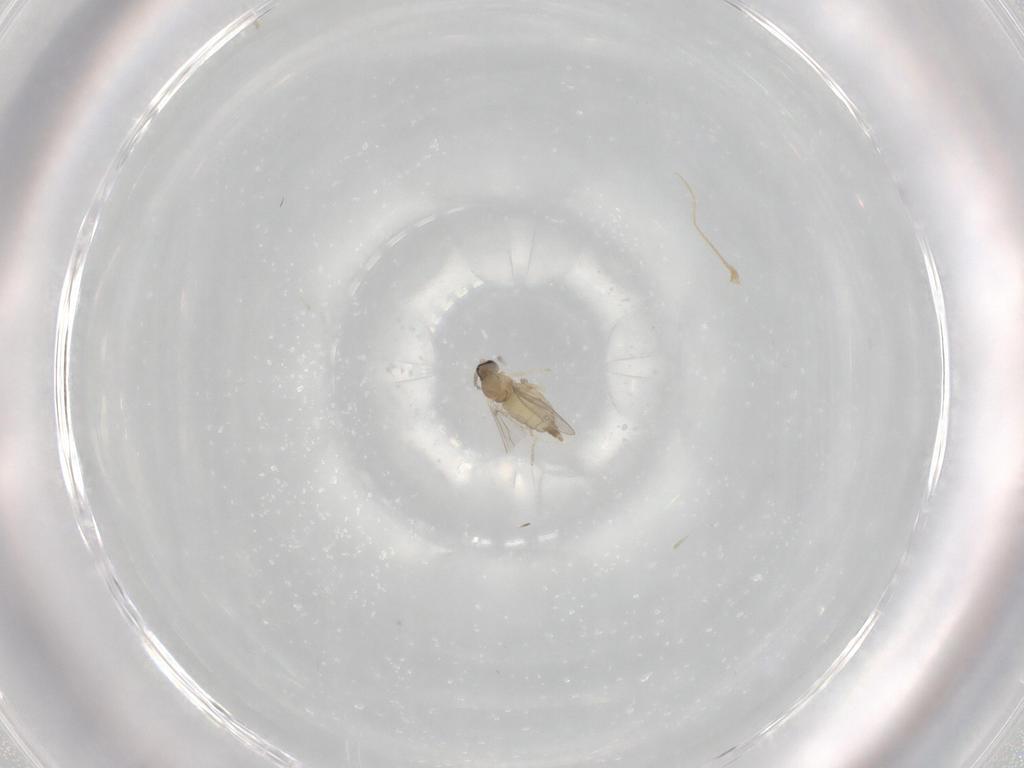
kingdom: Animalia
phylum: Arthropoda
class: Insecta
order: Diptera
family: Cecidomyiidae
